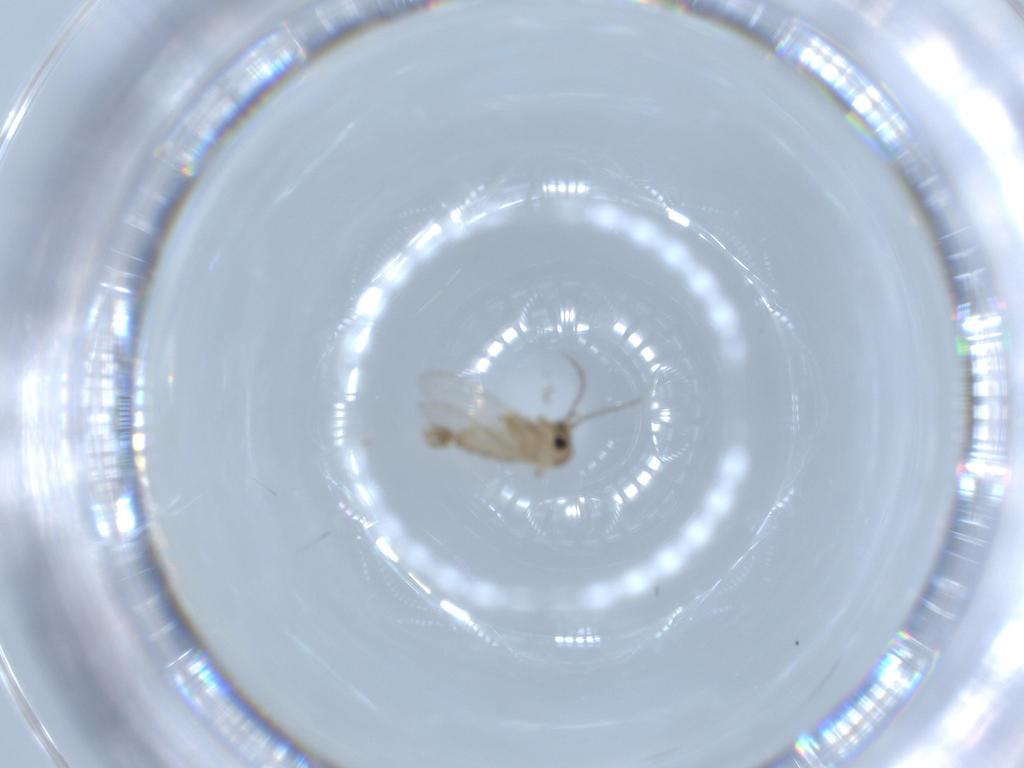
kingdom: Animalia
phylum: Arthropoda
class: Insecta
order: Diptera
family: Psychodidae
